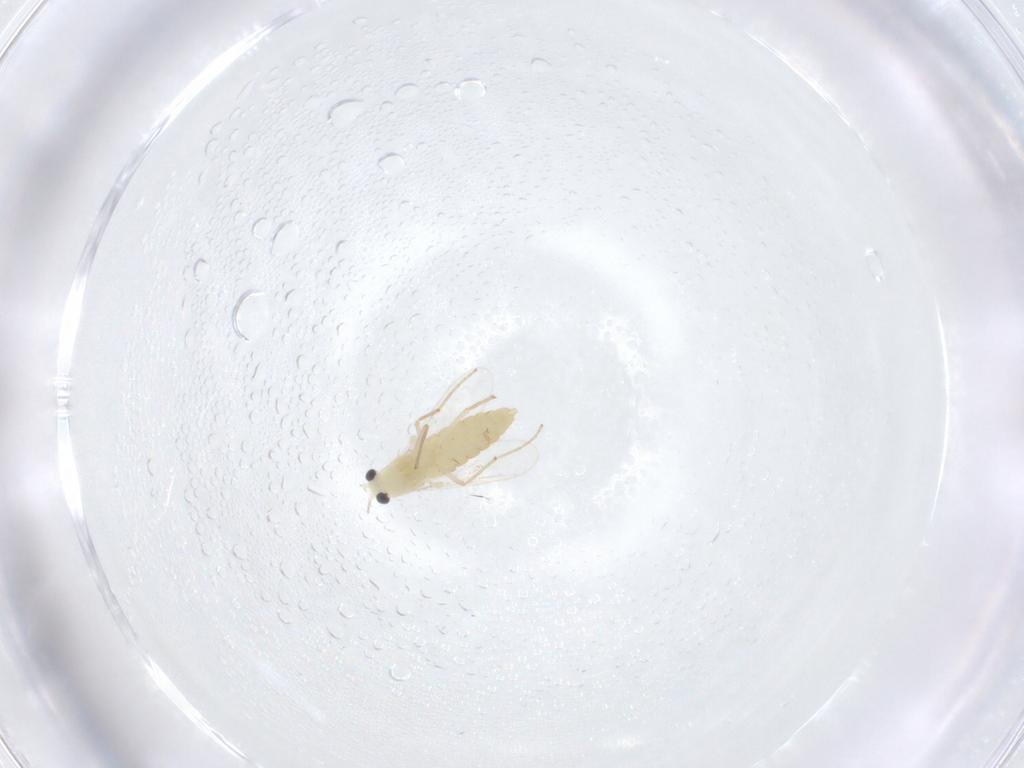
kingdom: Animalia
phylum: Arthropoda
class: Insecta
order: Diptera
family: Chironomidae
